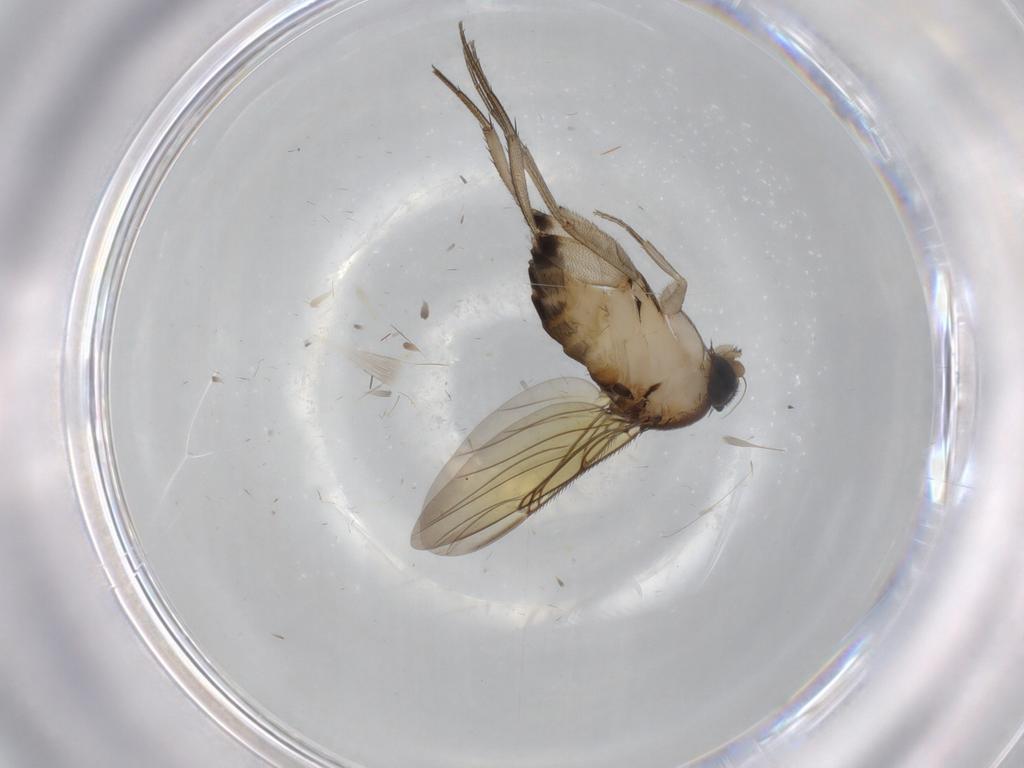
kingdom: Animalia
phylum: Arthropoda
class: Insecta
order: Diptera
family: Phoridae
